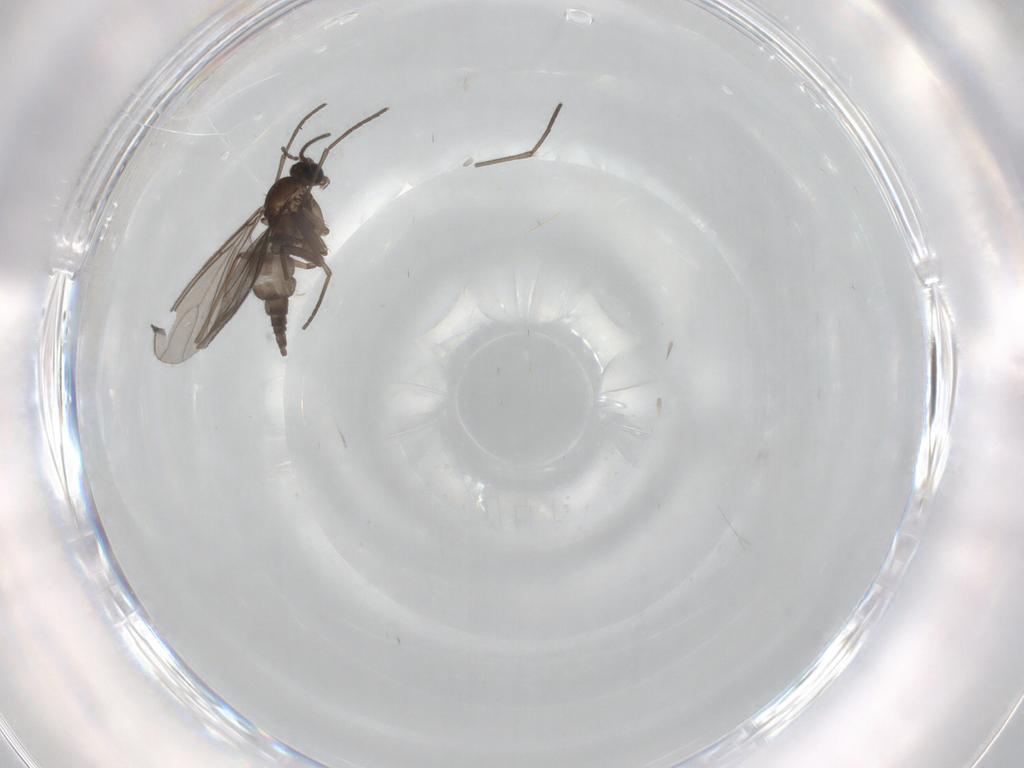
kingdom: Animalia
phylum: Arthropoda
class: Insecta
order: Diptera
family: Sciaridae
